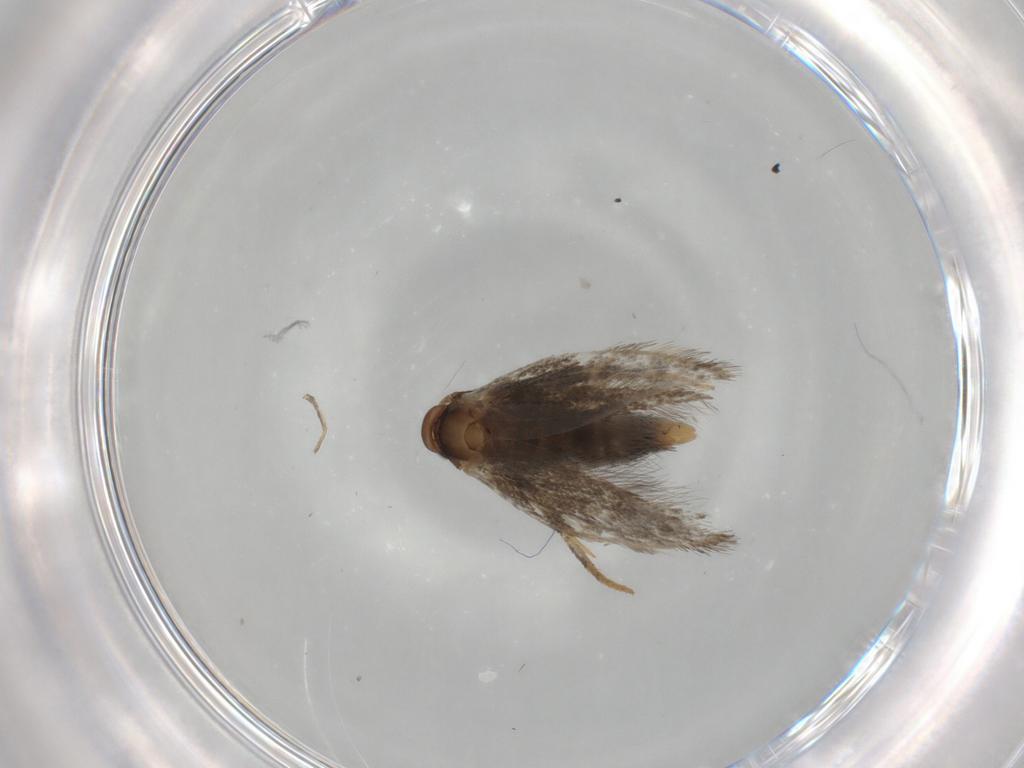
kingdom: Animalia
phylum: Arthropoda
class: Insecta
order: Lepidoptera
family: Elachistidae
